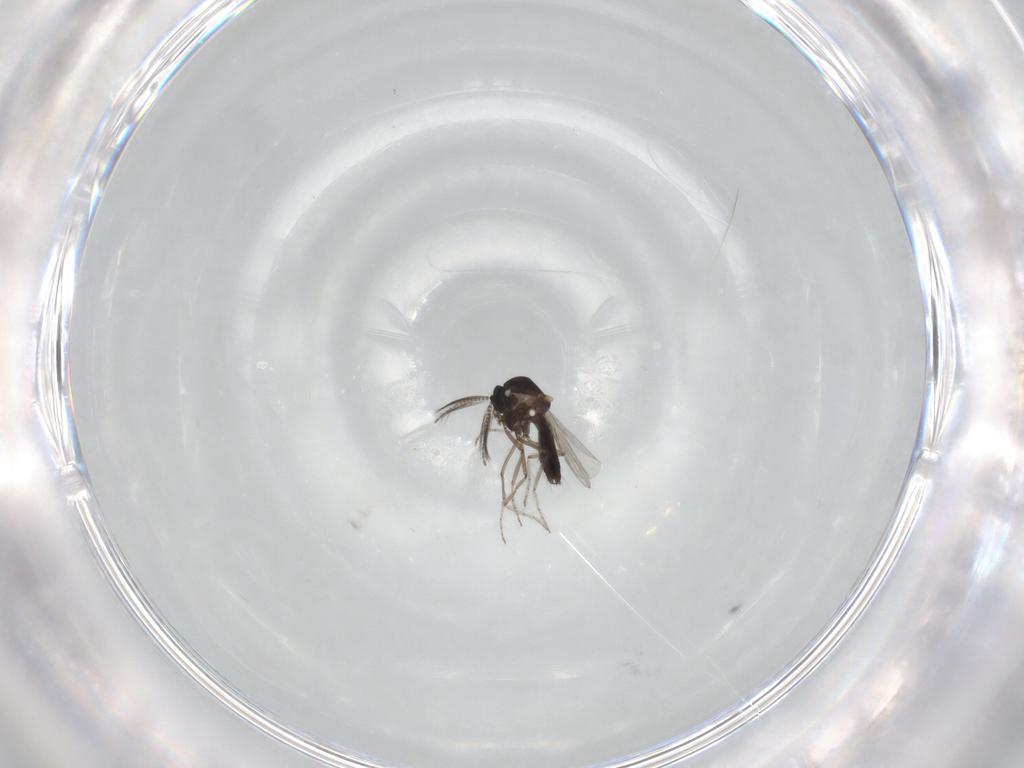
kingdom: Animalia
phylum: Arthropoda
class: Insecta
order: Diptera
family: Ceratopogonidae
